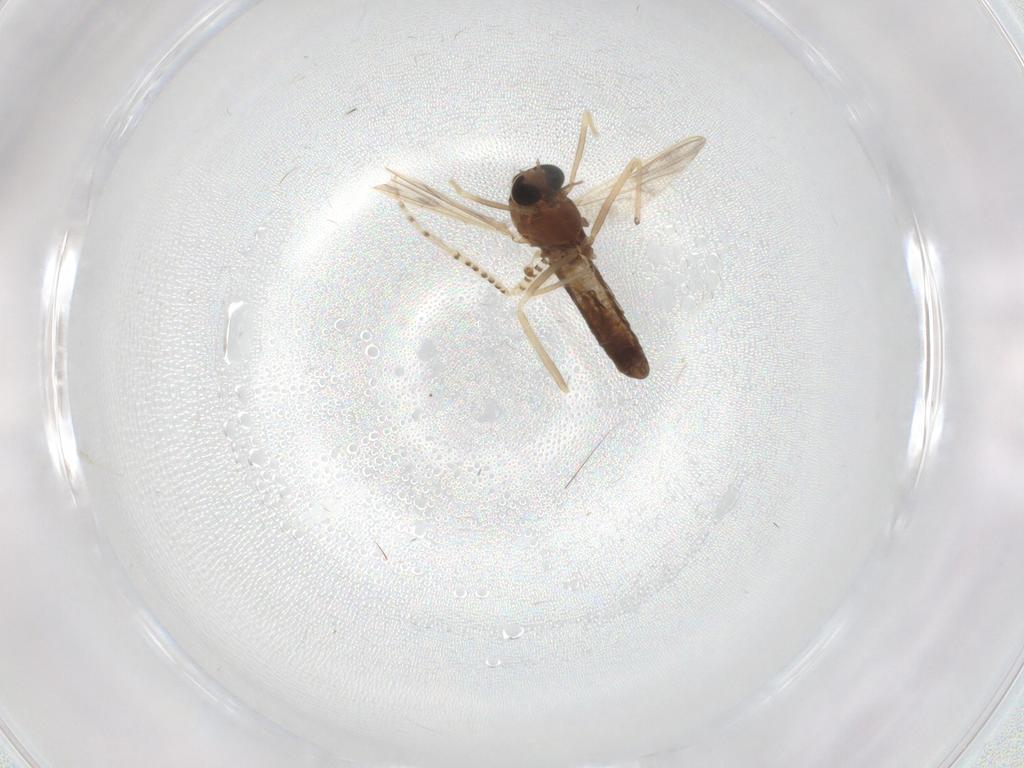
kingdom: Animalia
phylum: Arthropoda
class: Insecta
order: Diptera
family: Chironomidae
